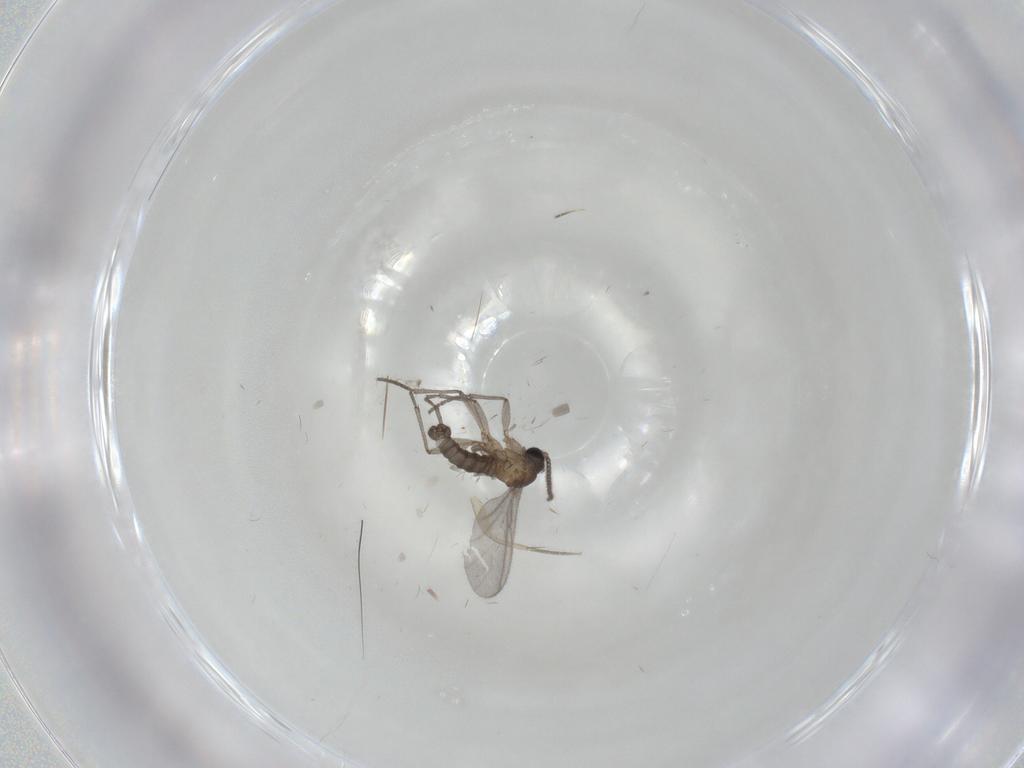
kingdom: Animalia
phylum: Arthropoda
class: Insecta
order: Diptera
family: Sciaridae
